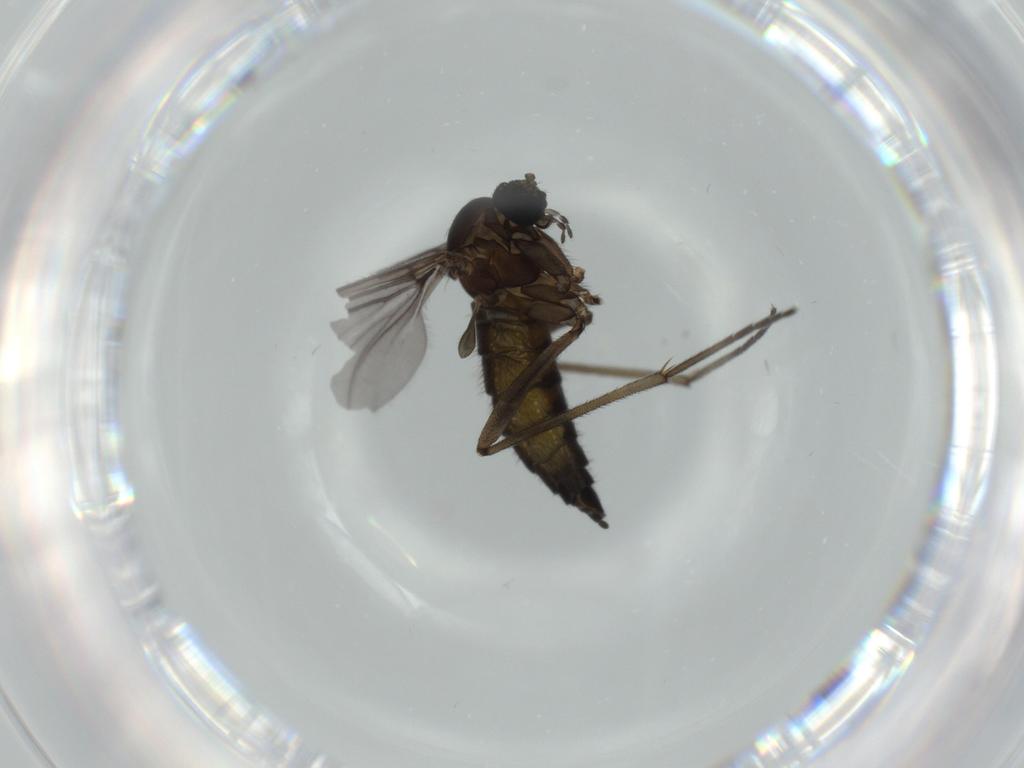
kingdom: Animalia
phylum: Arthropoda
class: Insecta
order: Diptera
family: Sciaridae
